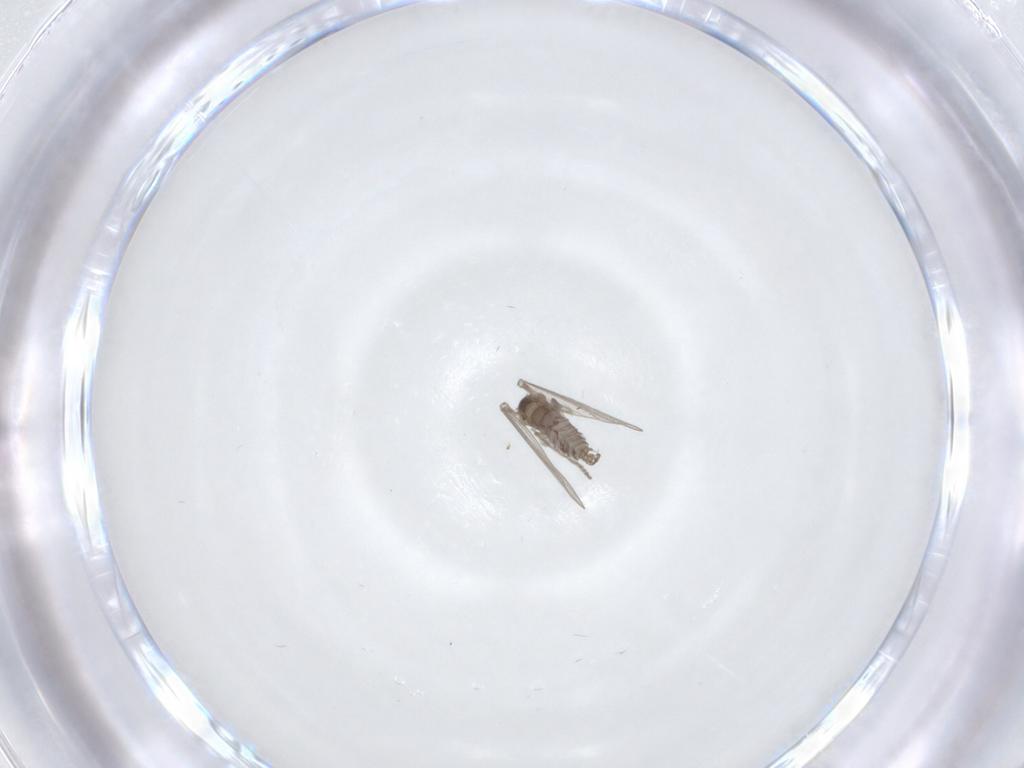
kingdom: Animalia
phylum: Arthropoda
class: Insecta
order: Diptera
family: Psychodidae
